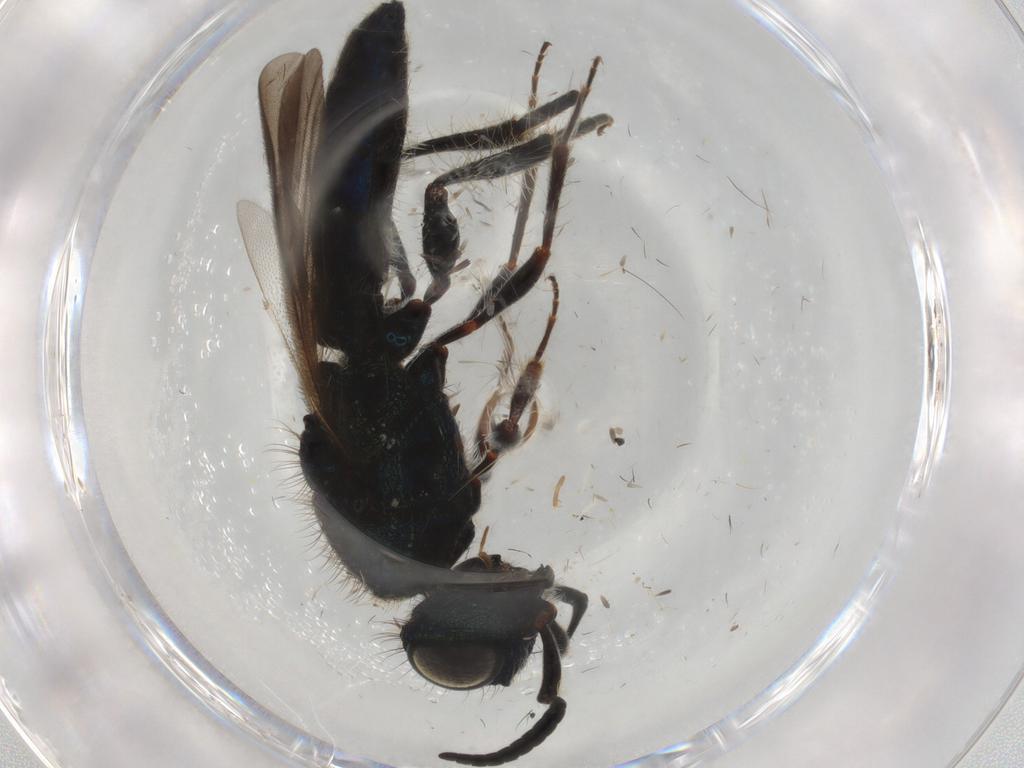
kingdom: Animalia
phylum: Arthropoda
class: Insecta
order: Hymenoptera
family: Scelionidae
